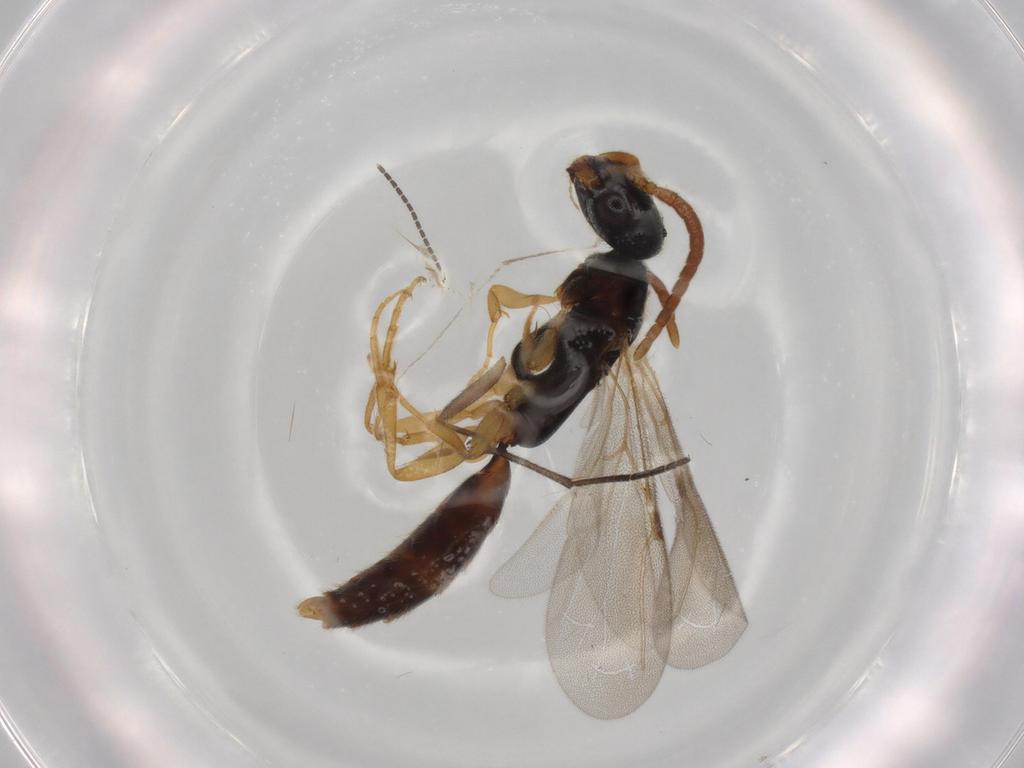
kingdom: Animalia
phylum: Arthropoda
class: Insecta
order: Hymenoptera
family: Bethylidae
